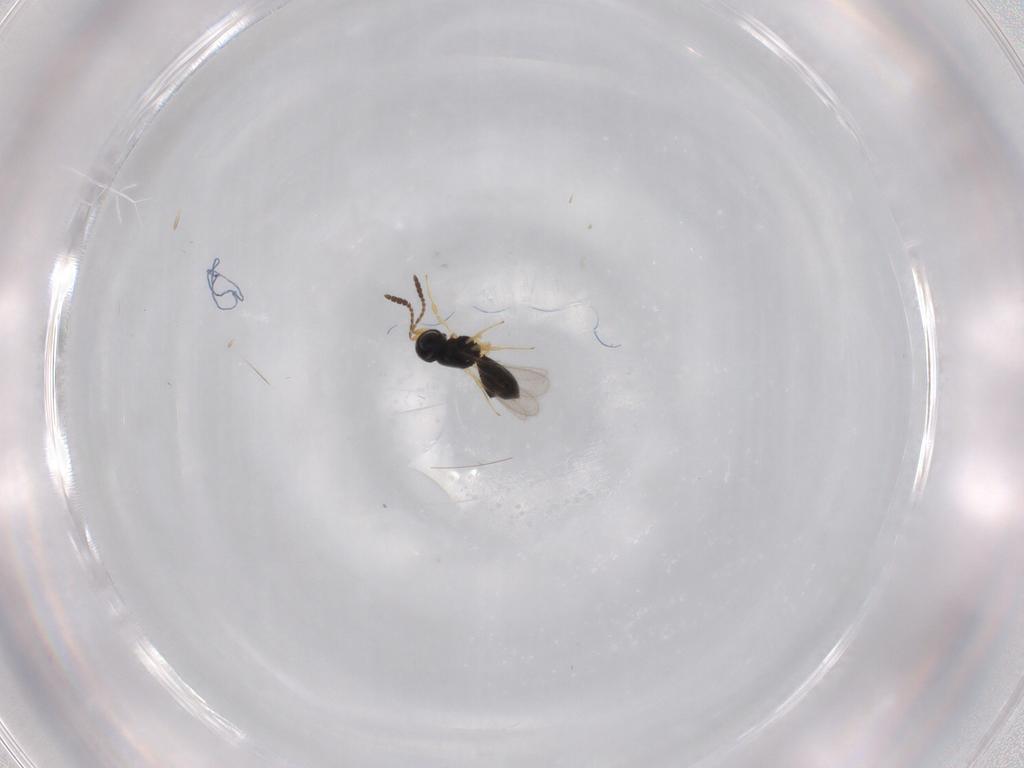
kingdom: Animalia
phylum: Arthropoda
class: Insecta
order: Hymenoptera
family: Scelionidae
